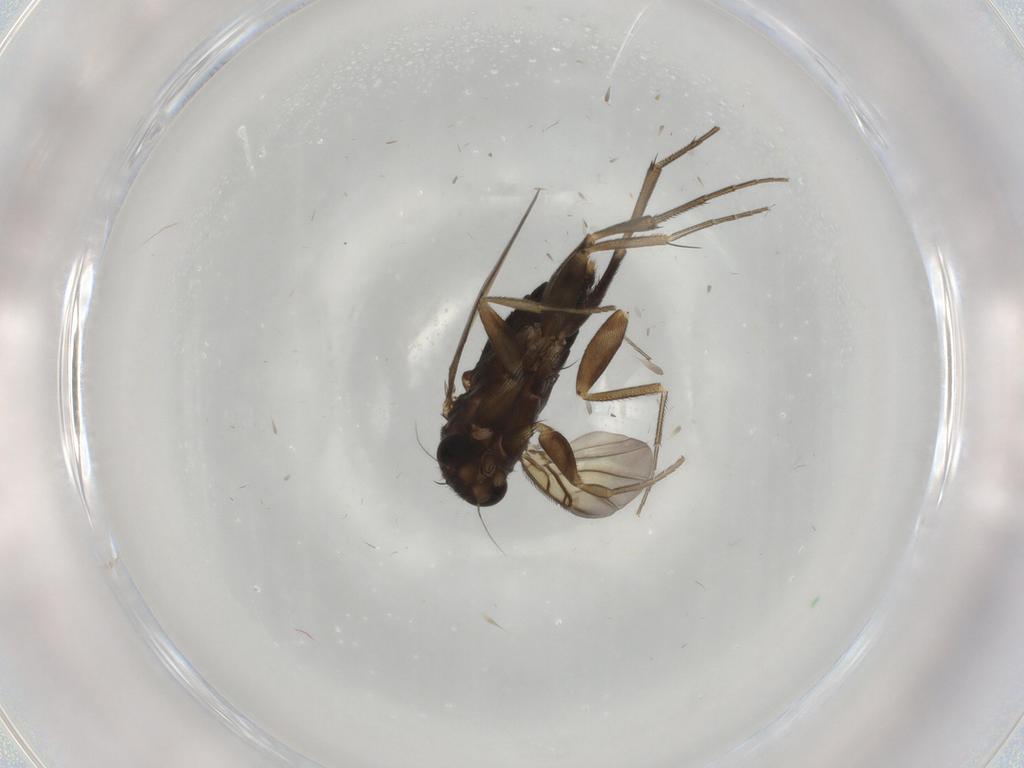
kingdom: Animalia
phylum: Arthropoda
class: Insecta
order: Diptera
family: Phoridae
